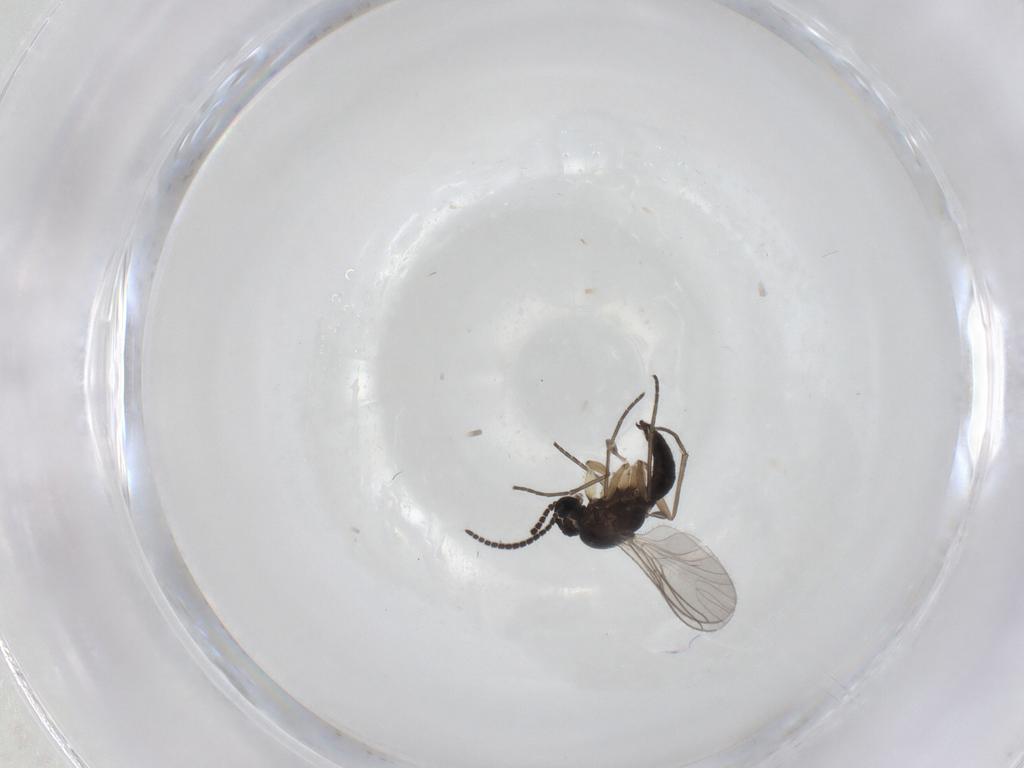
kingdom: Animalia
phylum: Arthropoda
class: Insecta
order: Diptera
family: Sciaridae
